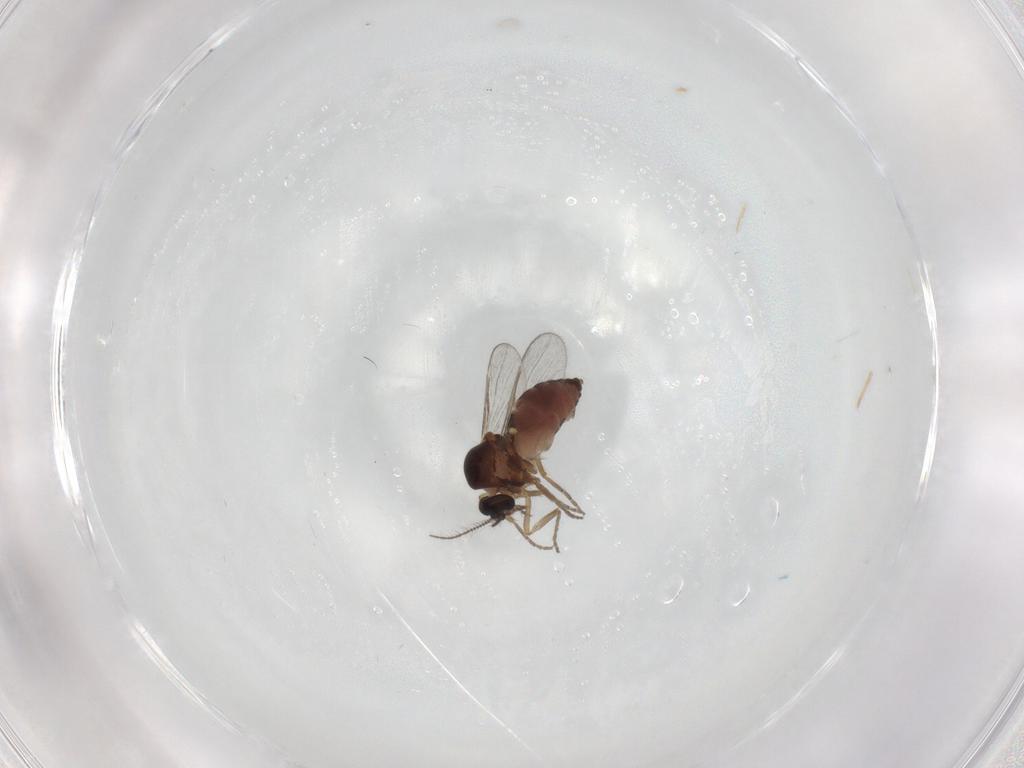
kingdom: Animalia
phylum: Arthropoda
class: Insecta
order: Diptera
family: Ceratopogonidae
